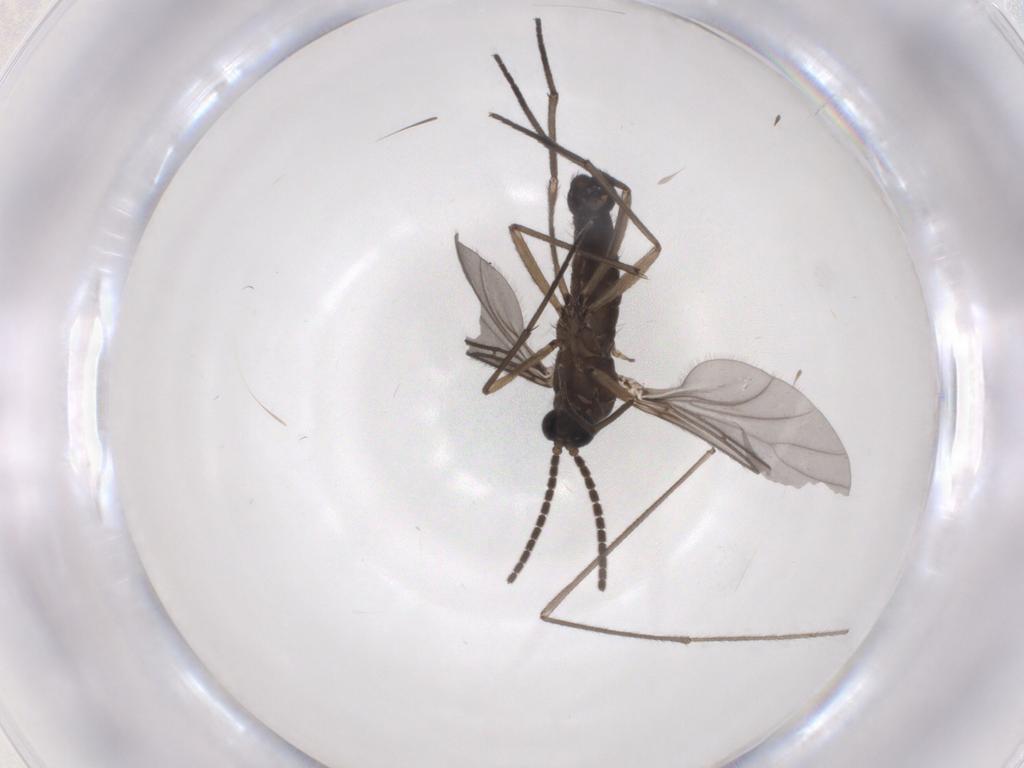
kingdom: Animalia
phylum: Arthropoda
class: Insecta
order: Diptera
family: Sciaridae
